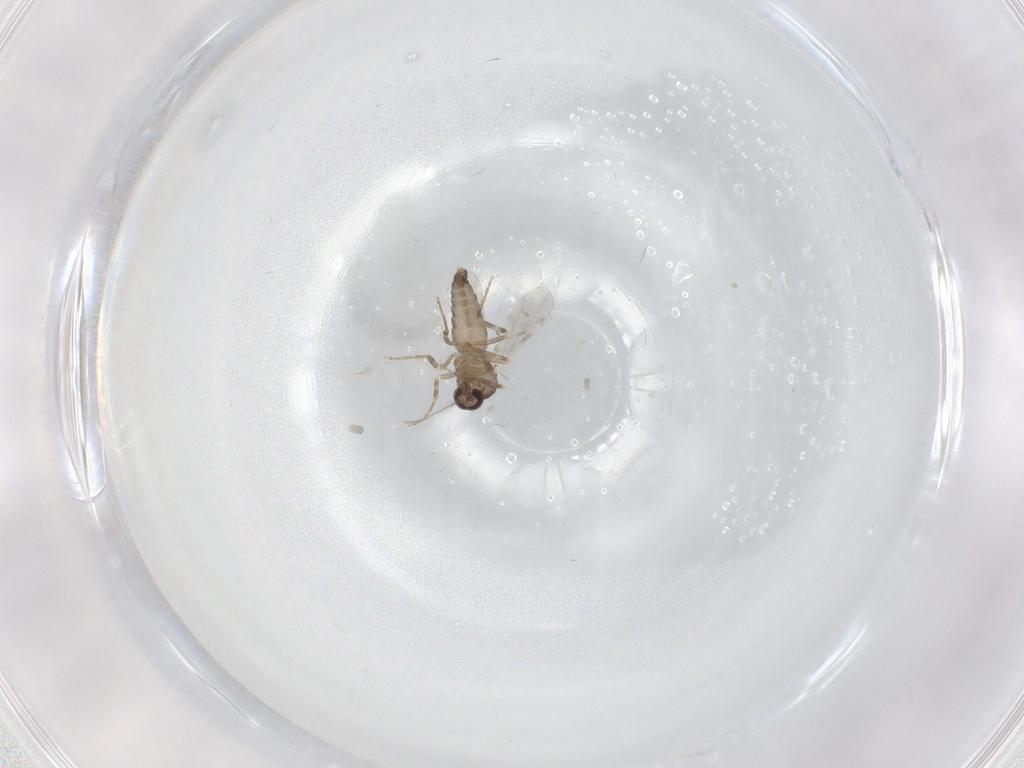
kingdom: Animalia
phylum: Arthropoda
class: Insecta
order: Diptera
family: Ceratopogonidae
